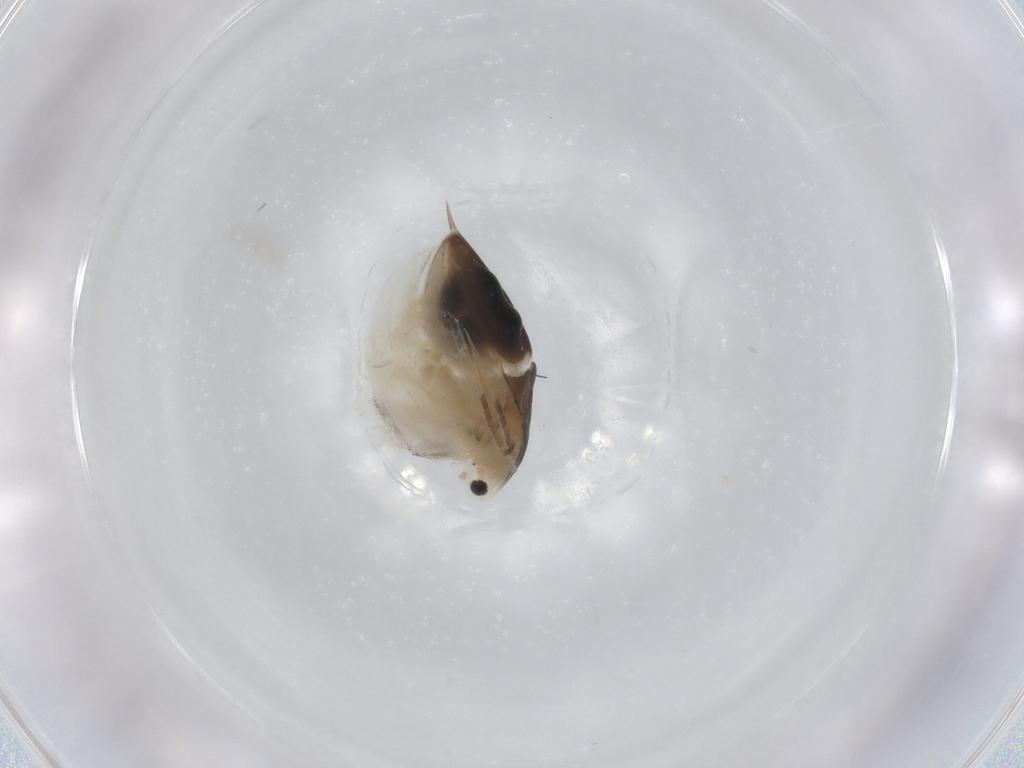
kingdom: Animalia
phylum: Arthropoda
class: Branchiopoda
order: Diplostraca
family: Daphniidae
